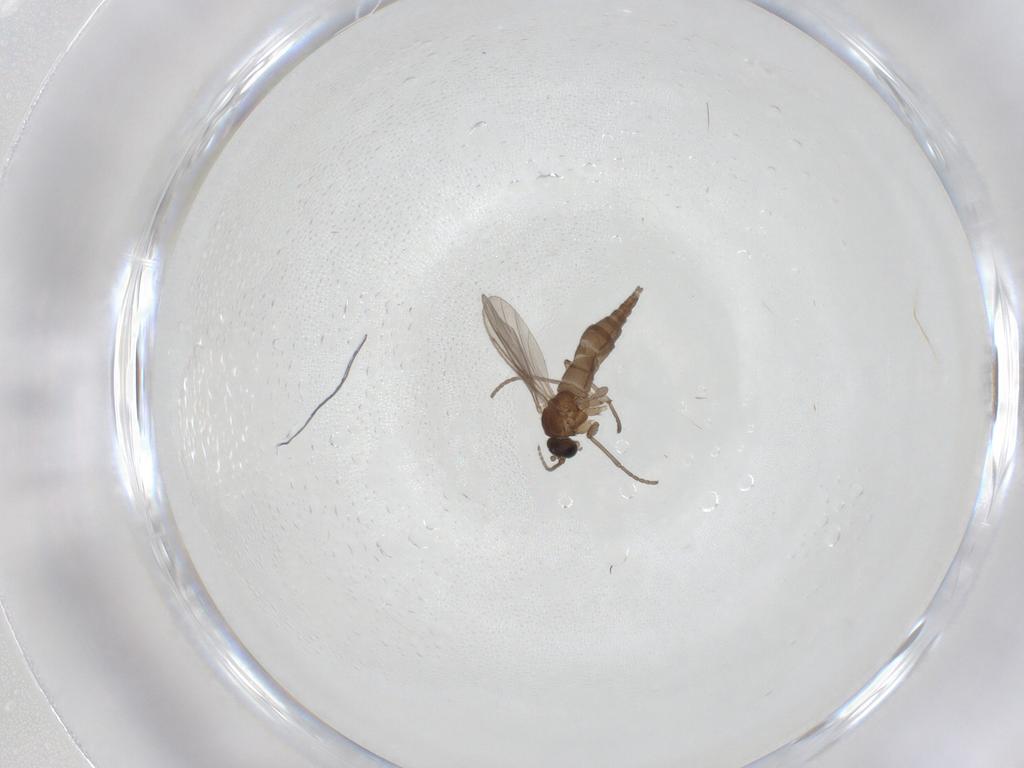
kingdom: Animalia
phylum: Arthropoda
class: Insecta
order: Diptera
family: Sciaridae
